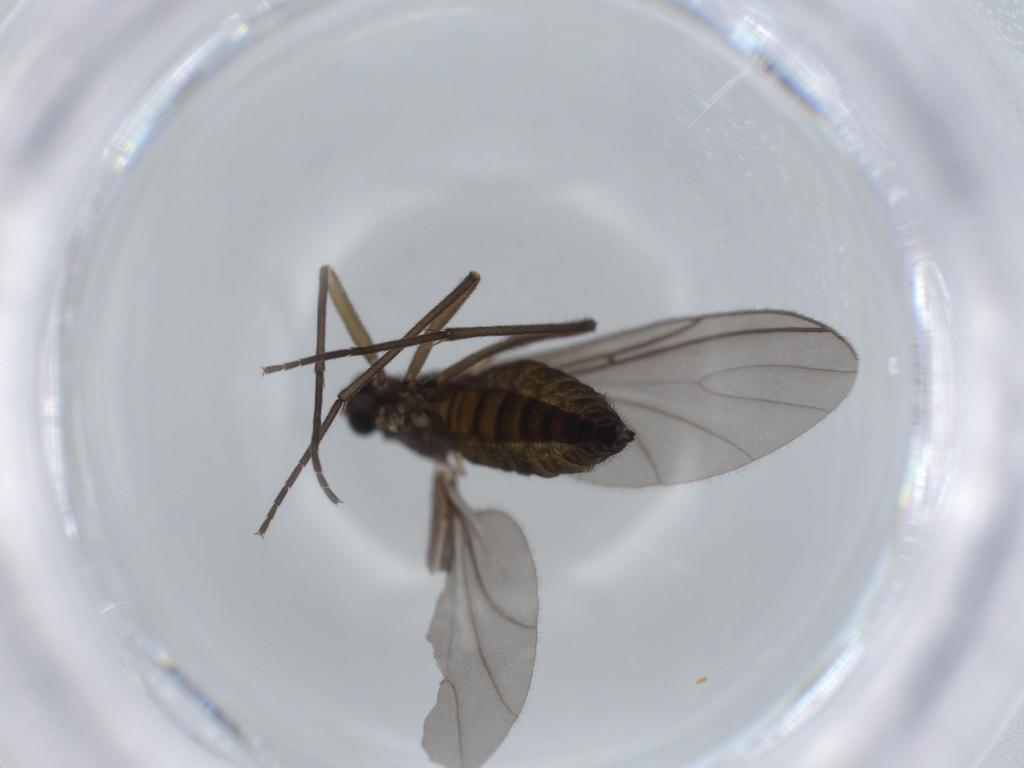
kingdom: Animalia
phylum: Arthropoda
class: Insecta
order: Diptera
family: Sciaridae
